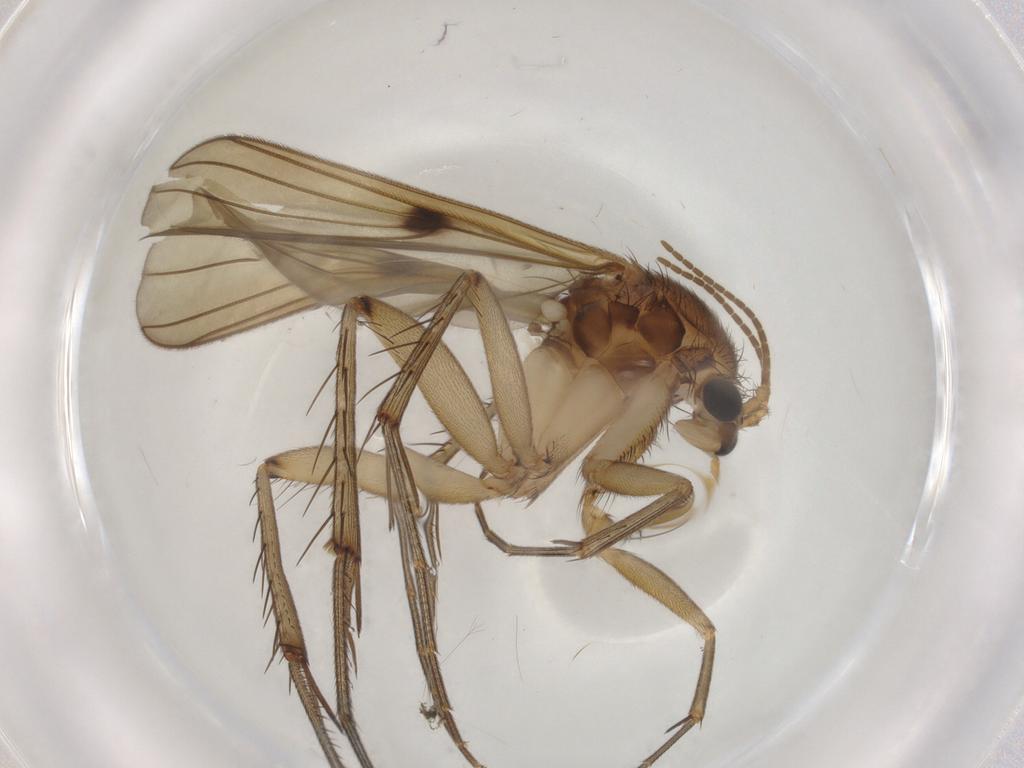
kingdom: Animalia
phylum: Arthropoda
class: Insecta
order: Diptera
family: Mycetophilidae
